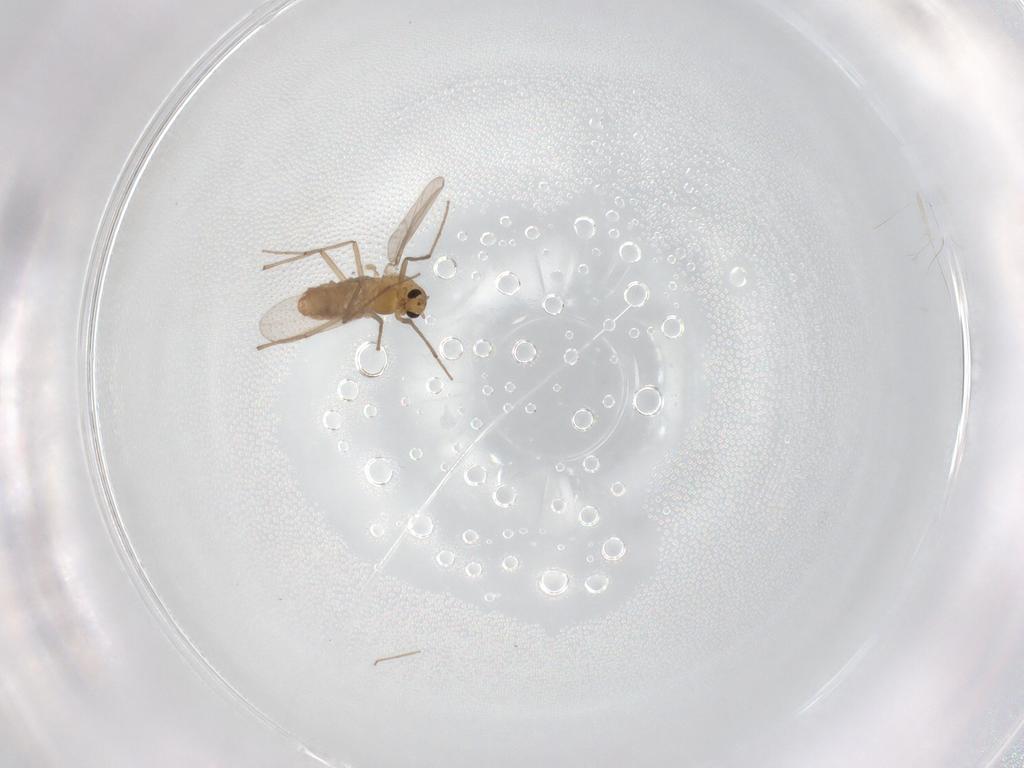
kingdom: Animalia
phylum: Arthropoda
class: Insecta
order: Diptera
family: Chironomidae
